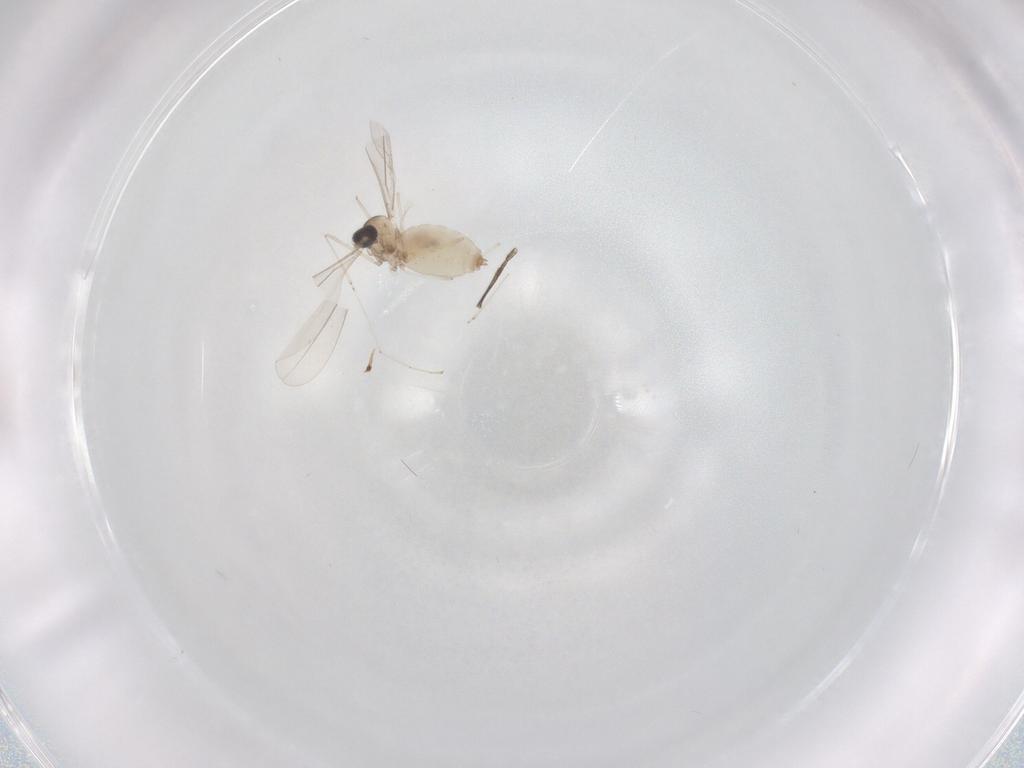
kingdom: Animalia
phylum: Arthropoda
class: Insecta
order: Diptera
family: Cecidomyiidae
